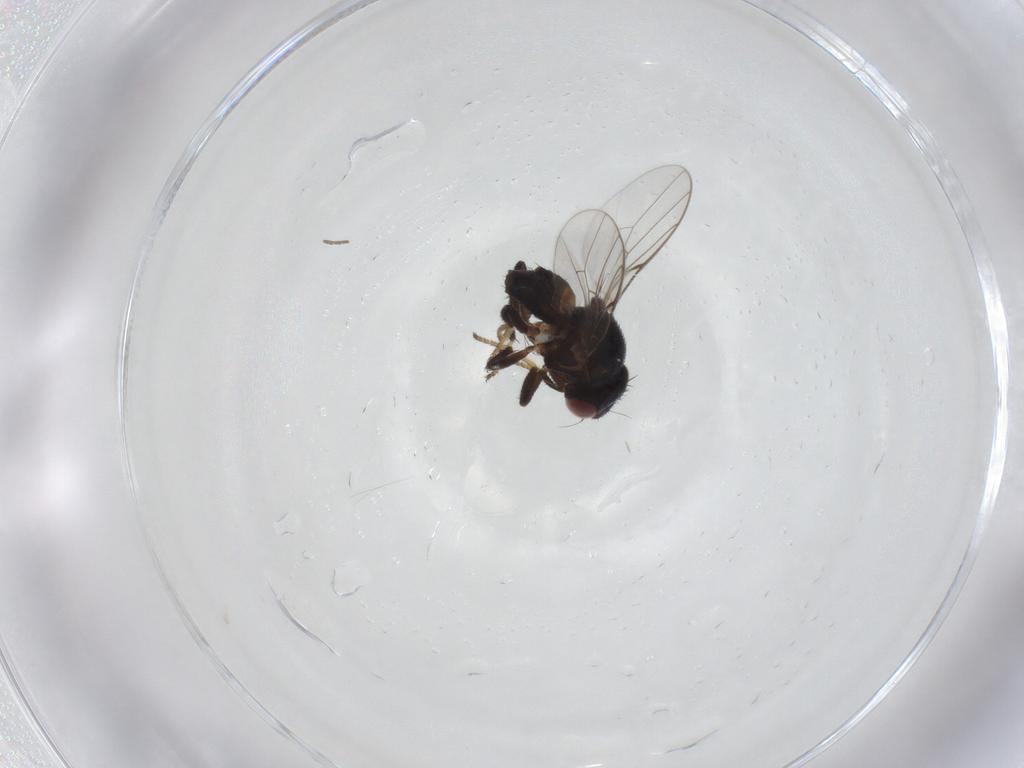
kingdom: Animalia
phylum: Arthropoda
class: Insecta
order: Diptera
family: Chloropidae
